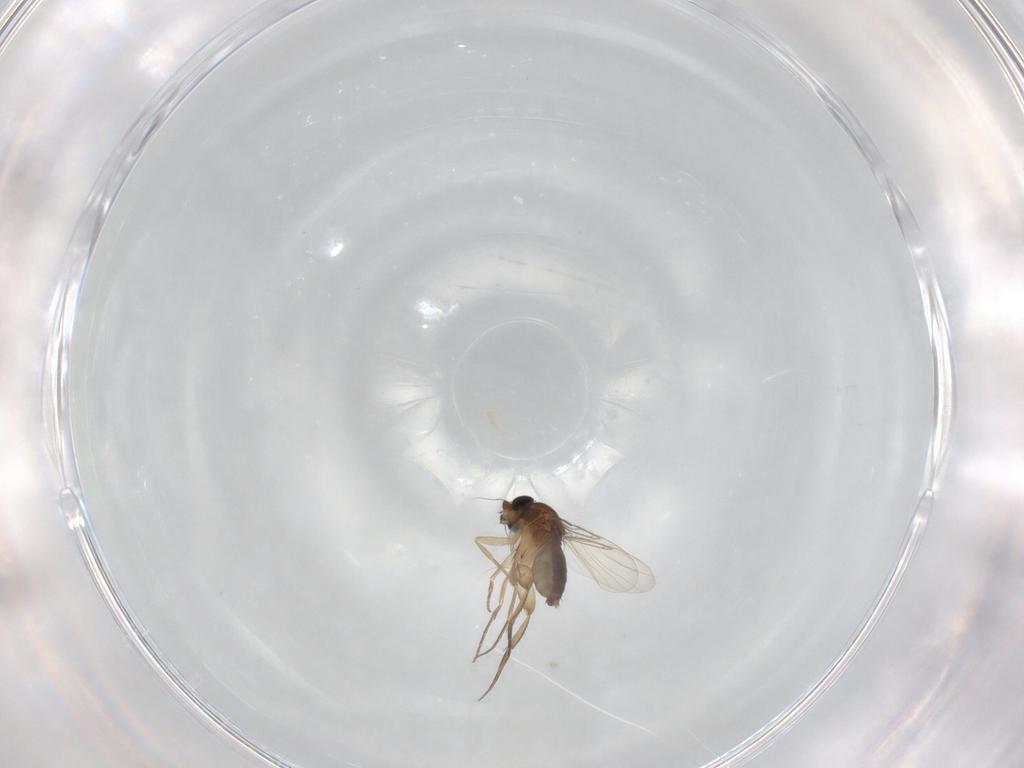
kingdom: Animalia
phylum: Arthropoda
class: Insecta
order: Diptera
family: Phoridae
